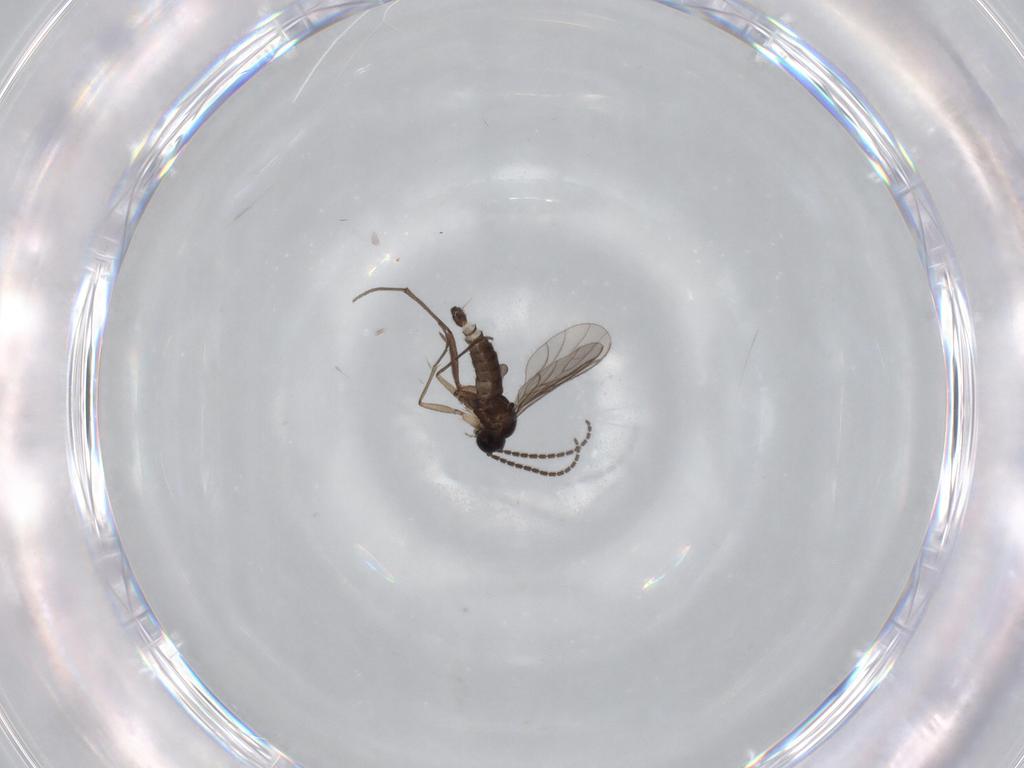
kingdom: Animalia
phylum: Arthropoda
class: Insecta
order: Diptera
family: Sciaridae
